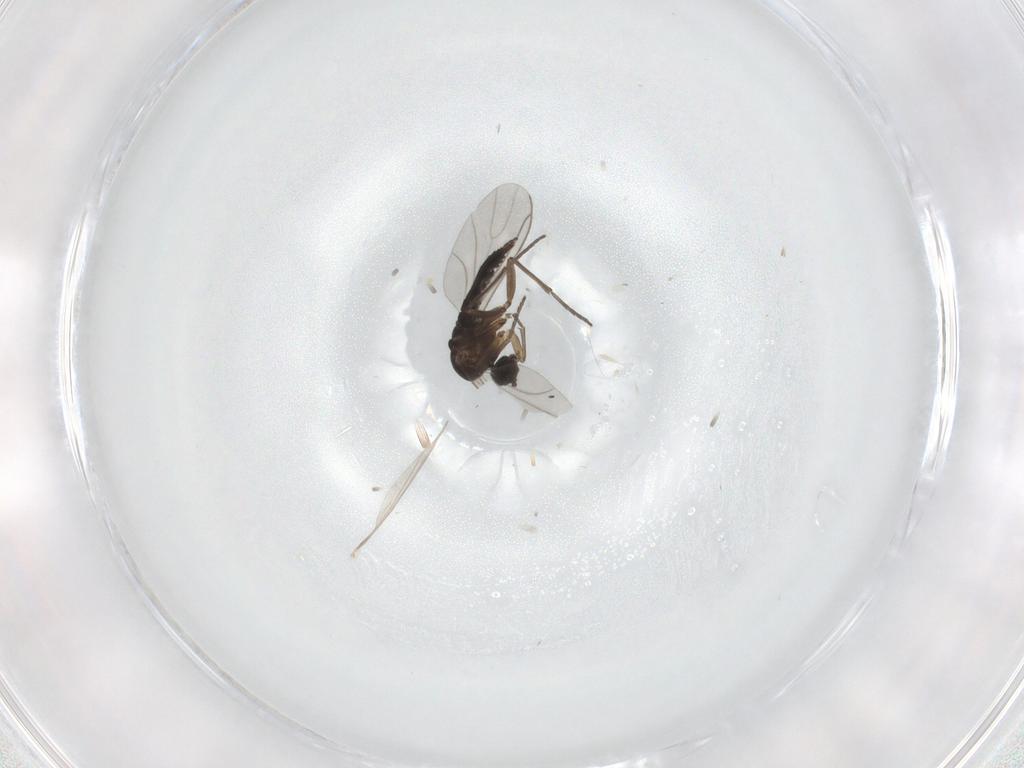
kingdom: Animalia
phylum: Arthropoda
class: Insecta
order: Diptera
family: Sciaridae
